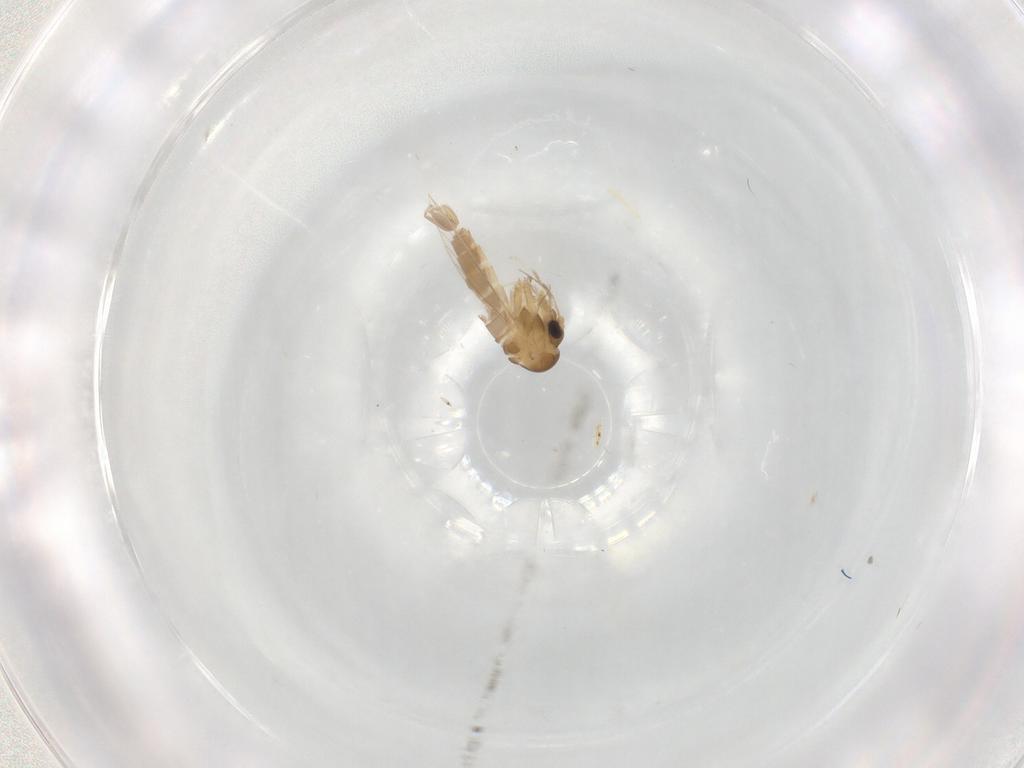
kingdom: Animalia
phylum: Arthropoda
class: Insecta
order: Diptera
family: Psychodidae
